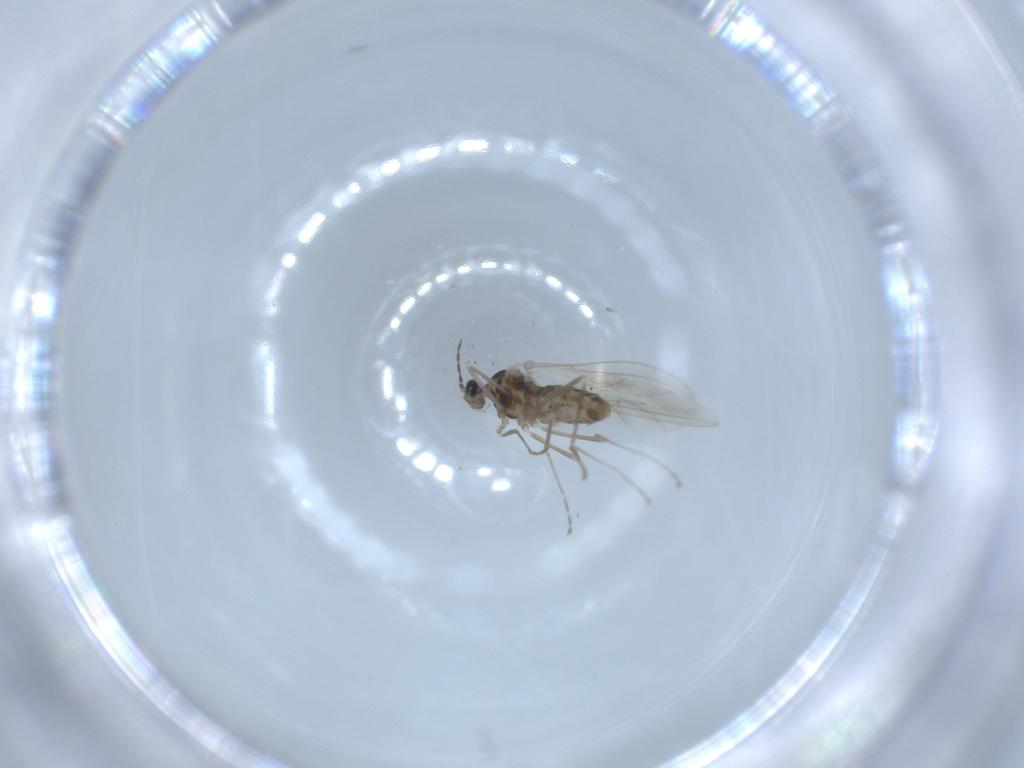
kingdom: Animalia
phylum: Arthropoda
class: Insecta
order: Diptera
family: Cecidomyiidae
